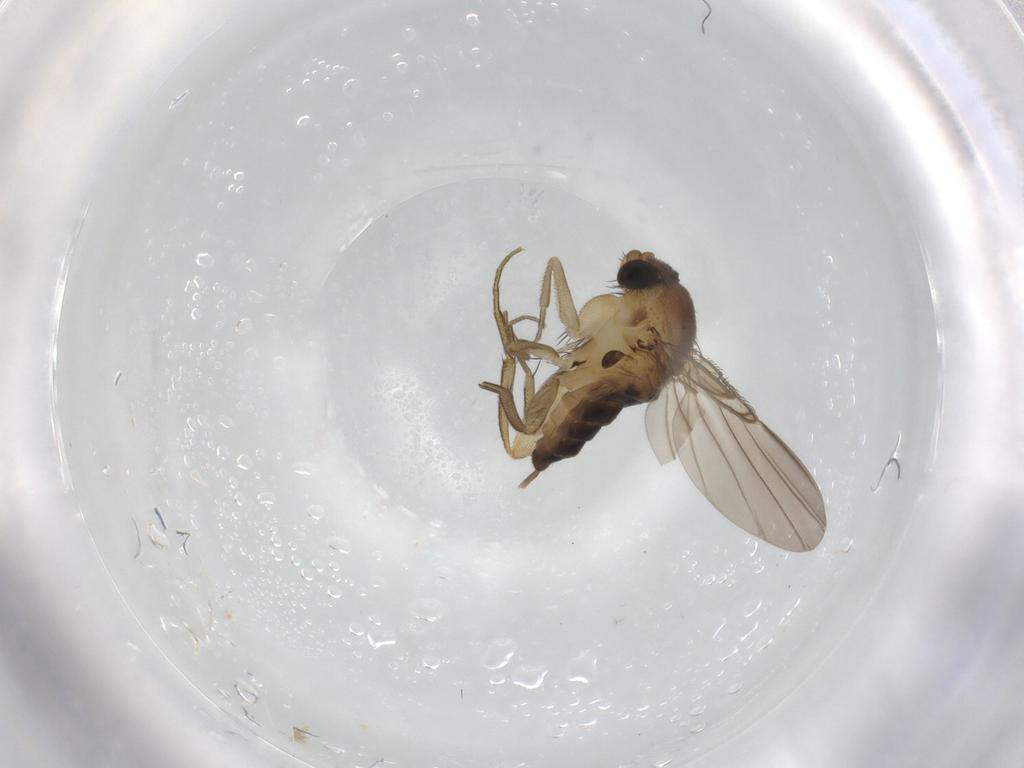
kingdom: Animalia
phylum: Arthropoda
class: Insecta
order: Diptera
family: Phoridae
